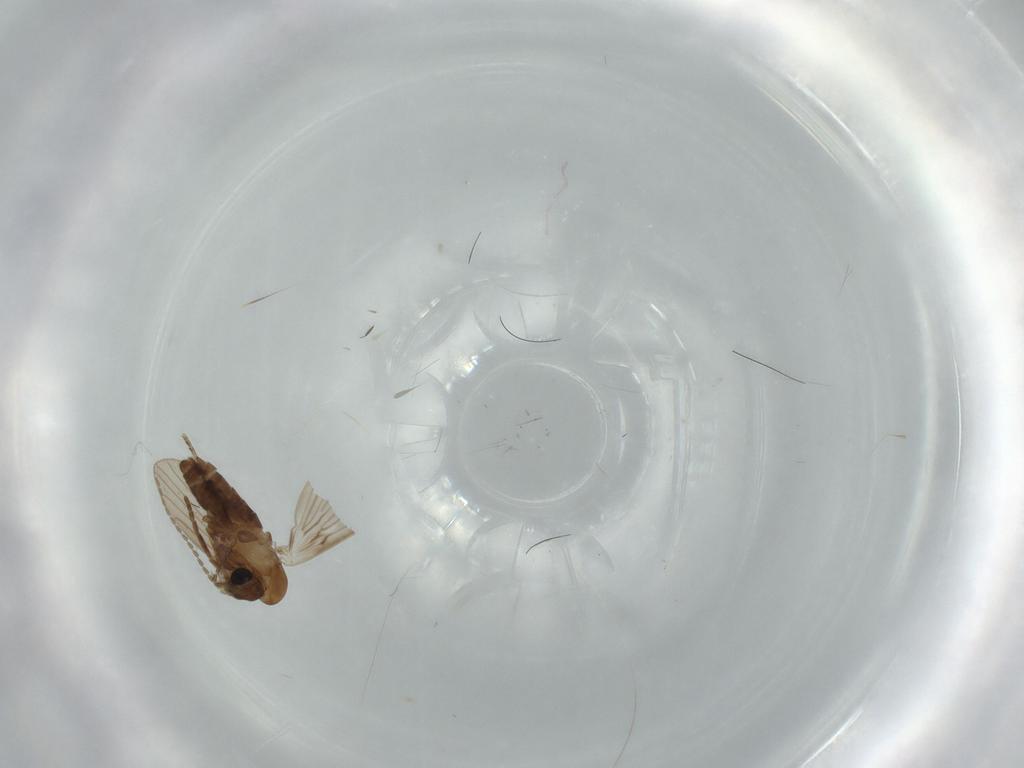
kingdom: Animalia
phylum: Arthropoda
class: Insecta
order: Diptera
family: Psychodidae
